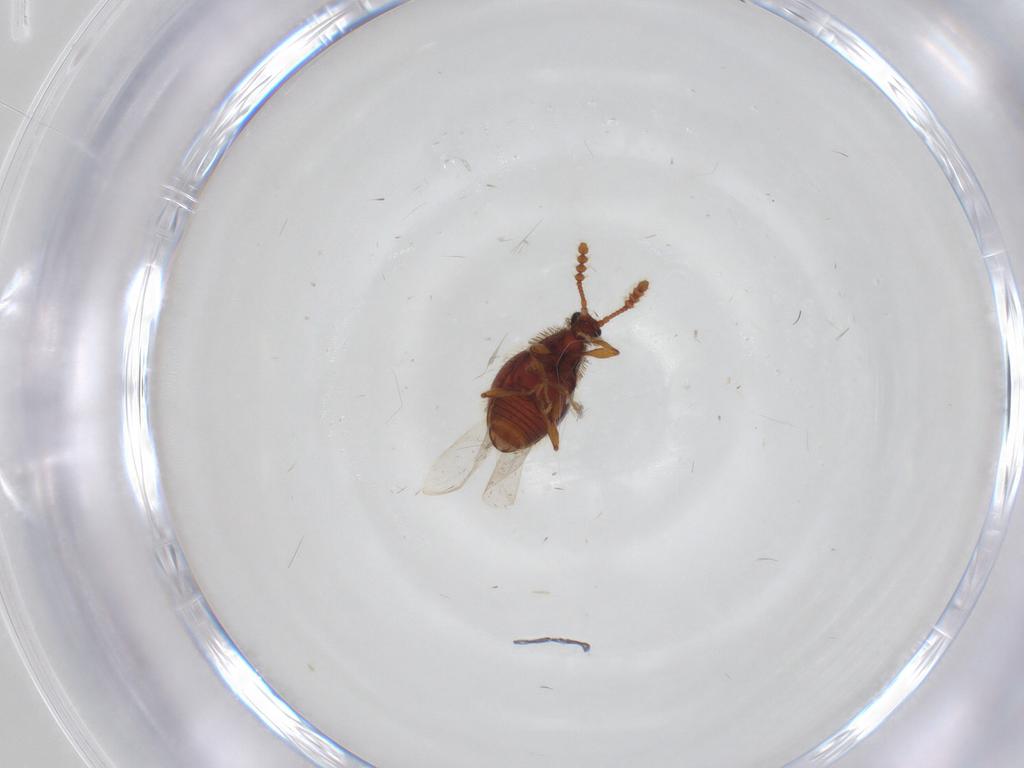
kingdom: Animalia
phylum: Arthropoda
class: Insecta
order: Coleoptera
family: Staphylinidae
